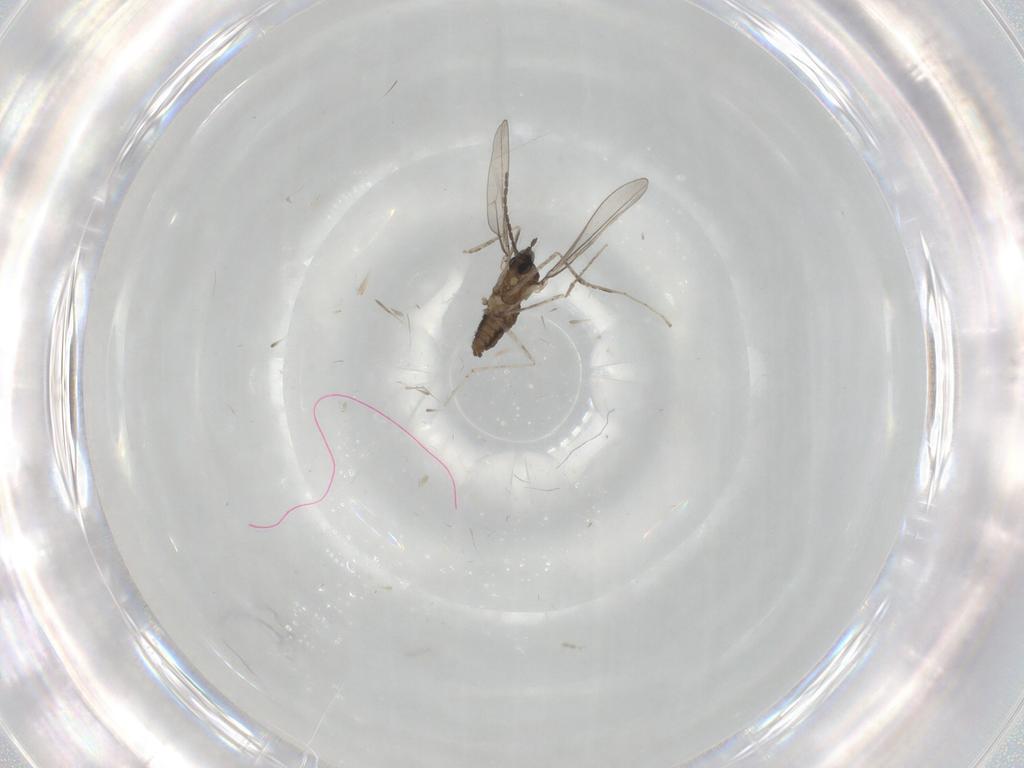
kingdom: Animalia
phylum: Arthropoda
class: Insecta
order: Diptera
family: Cecidomyiidae
